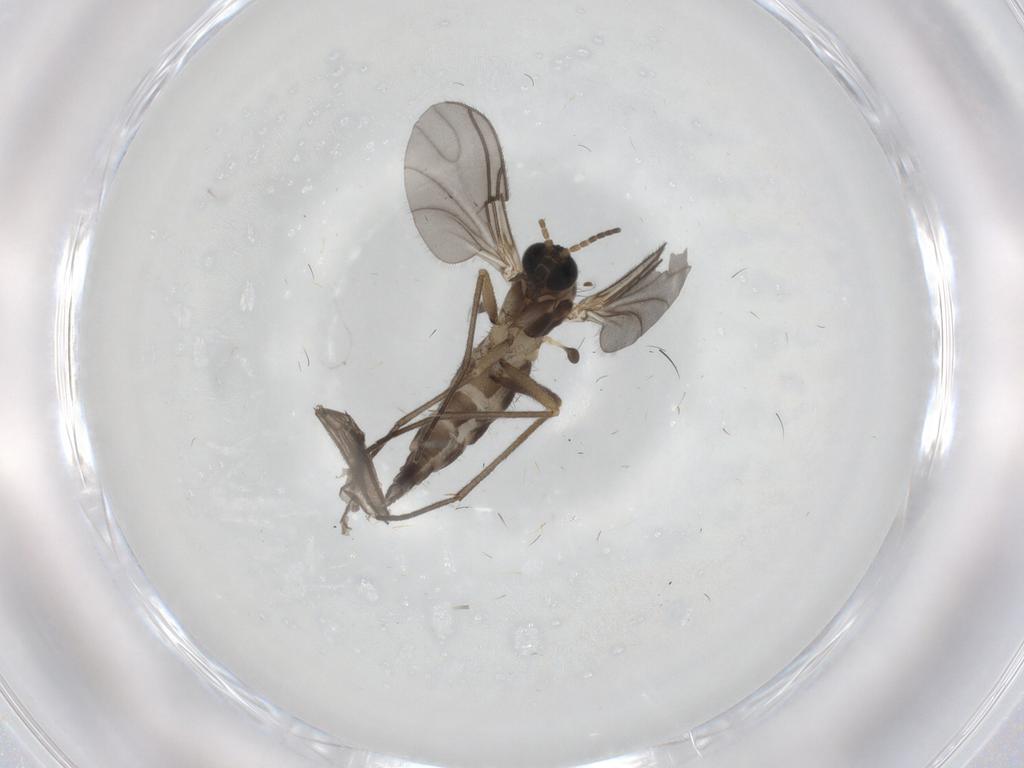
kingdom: Animalia
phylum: Arthropoda
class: Insecta
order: Diptera
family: Sciaridae
